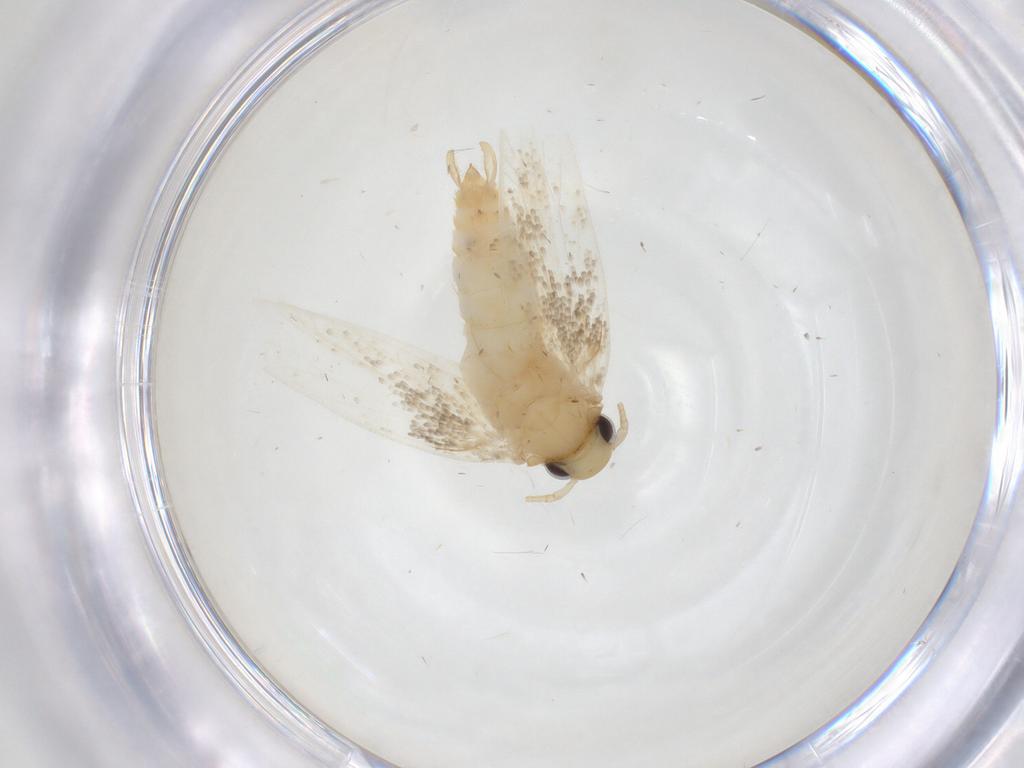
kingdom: Animalia
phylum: Arthropoda
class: Insecta
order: Lepidoptera
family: Lecithoceridae
